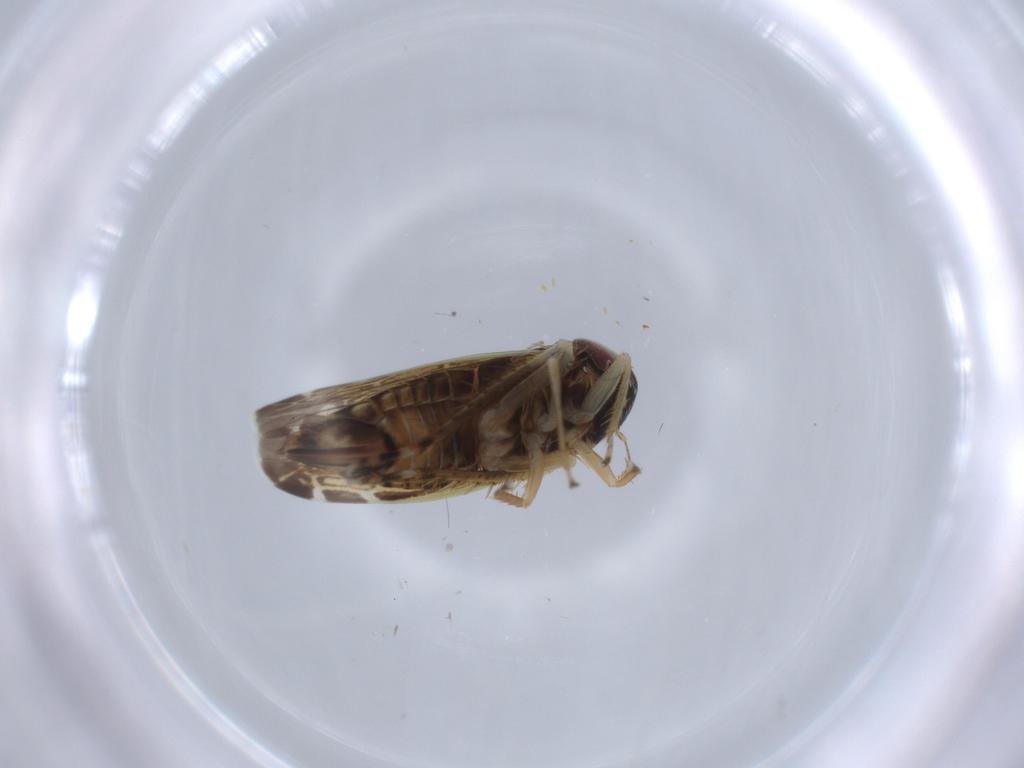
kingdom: Animalia
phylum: Arthropoda
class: Insecta
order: Hemiptera
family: Cicadellidae
